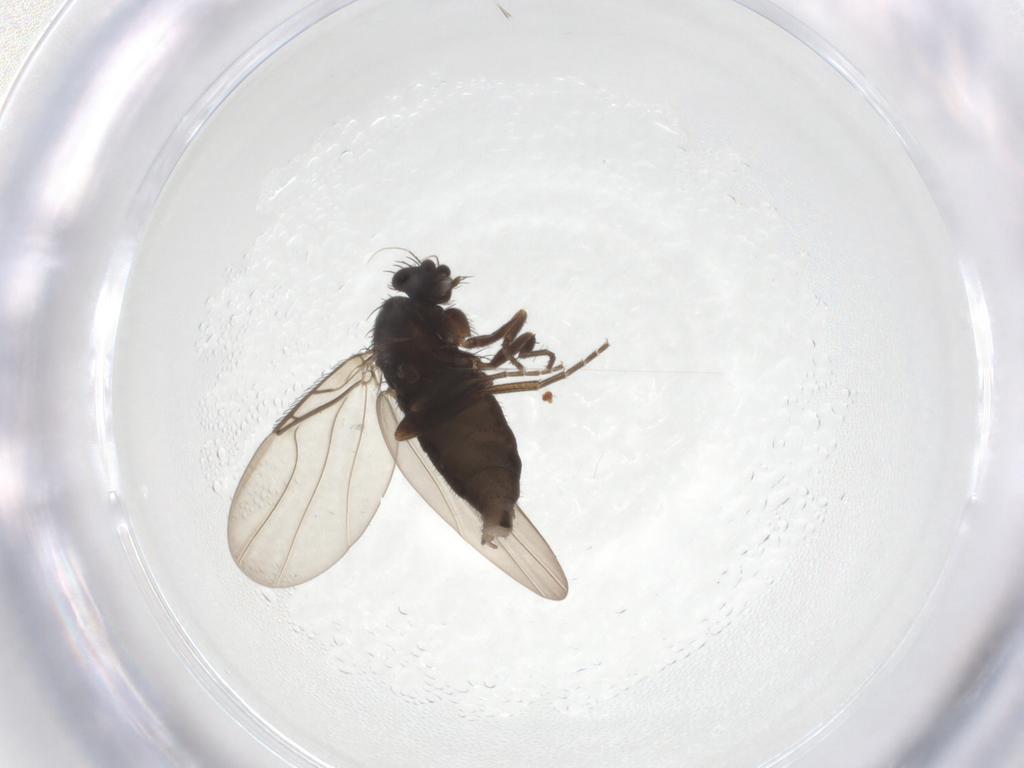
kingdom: Animalia
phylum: Arthropoda
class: Insecta
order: Diptera
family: Phoridae
